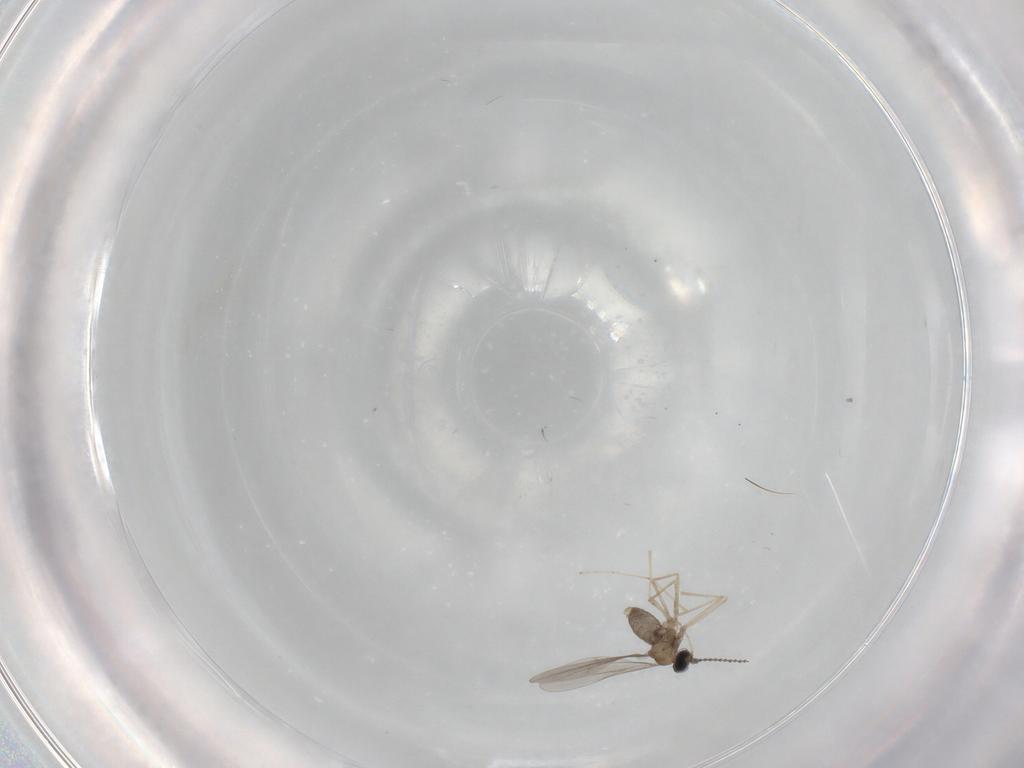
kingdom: Animalia
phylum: Arthropoda
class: Insecta
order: Diptera
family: Cecidomyiidae
